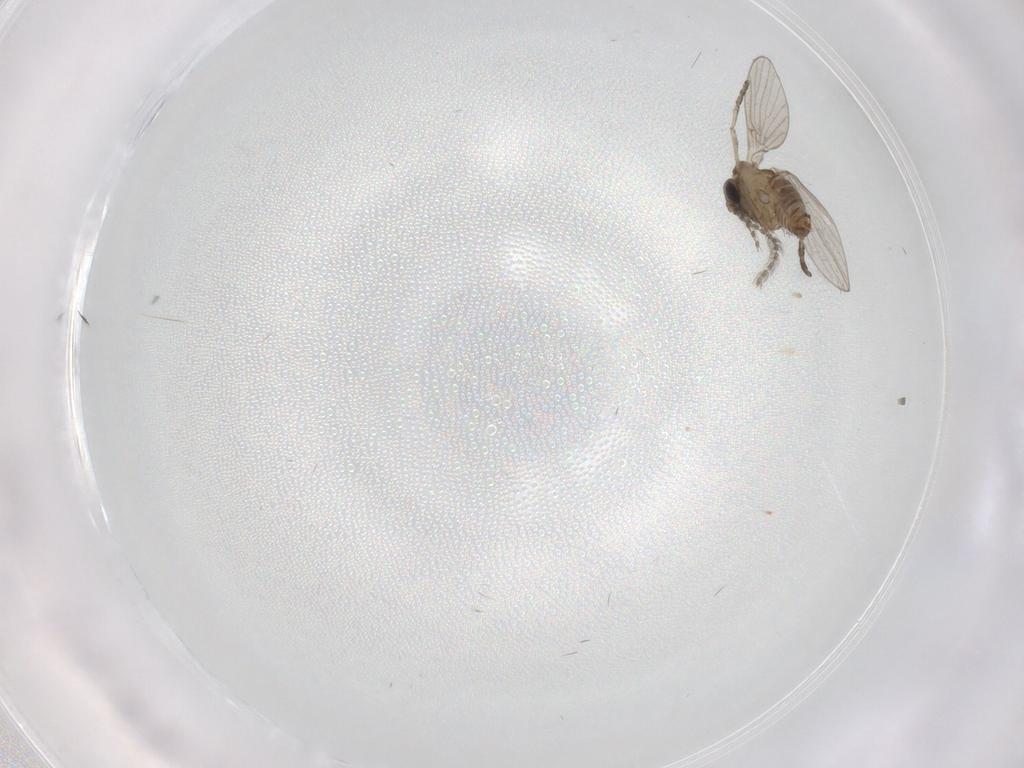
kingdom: Animalia
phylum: Arthropoda
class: Insecta
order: Diptera
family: Psychodidae
